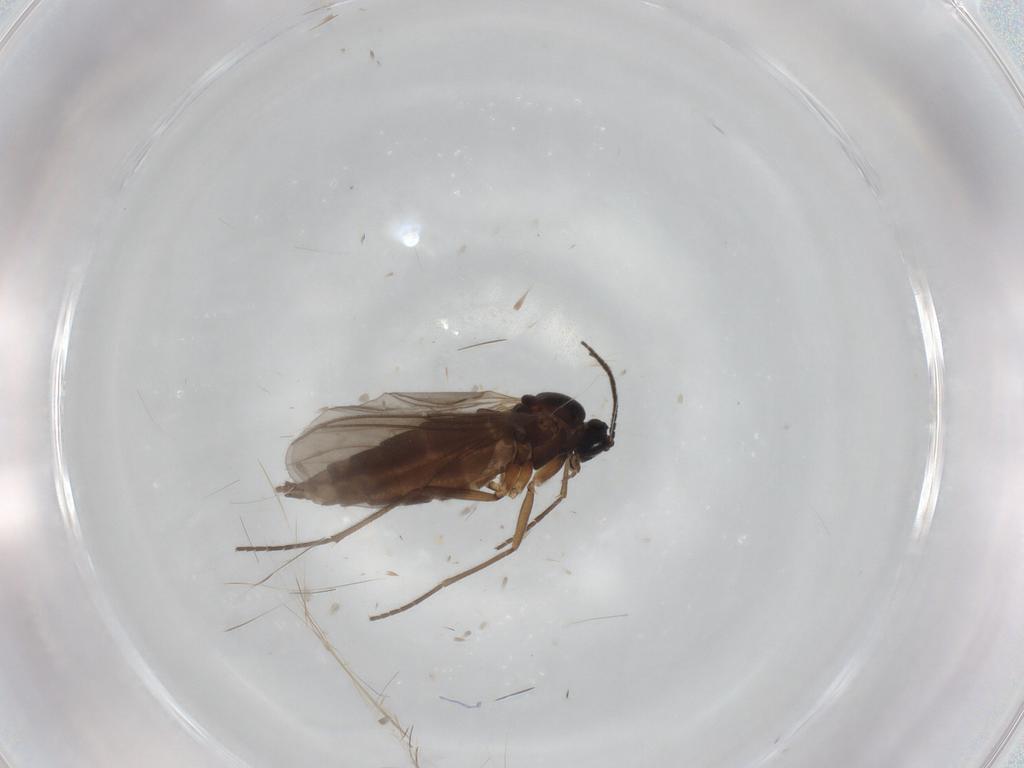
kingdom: Animalia
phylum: Arthropoda
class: Insecta
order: Diptera
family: Sciaridae
